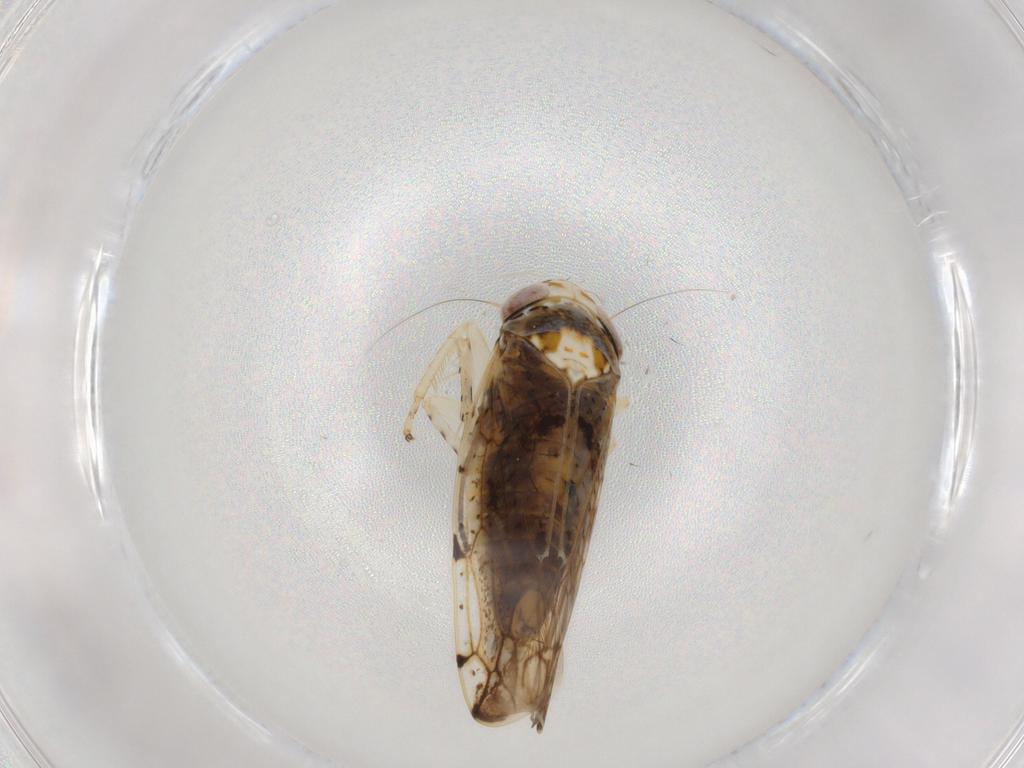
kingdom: Animalia
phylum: Arthropoda
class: Insecta
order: Hemiptera
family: Cicadellidae
